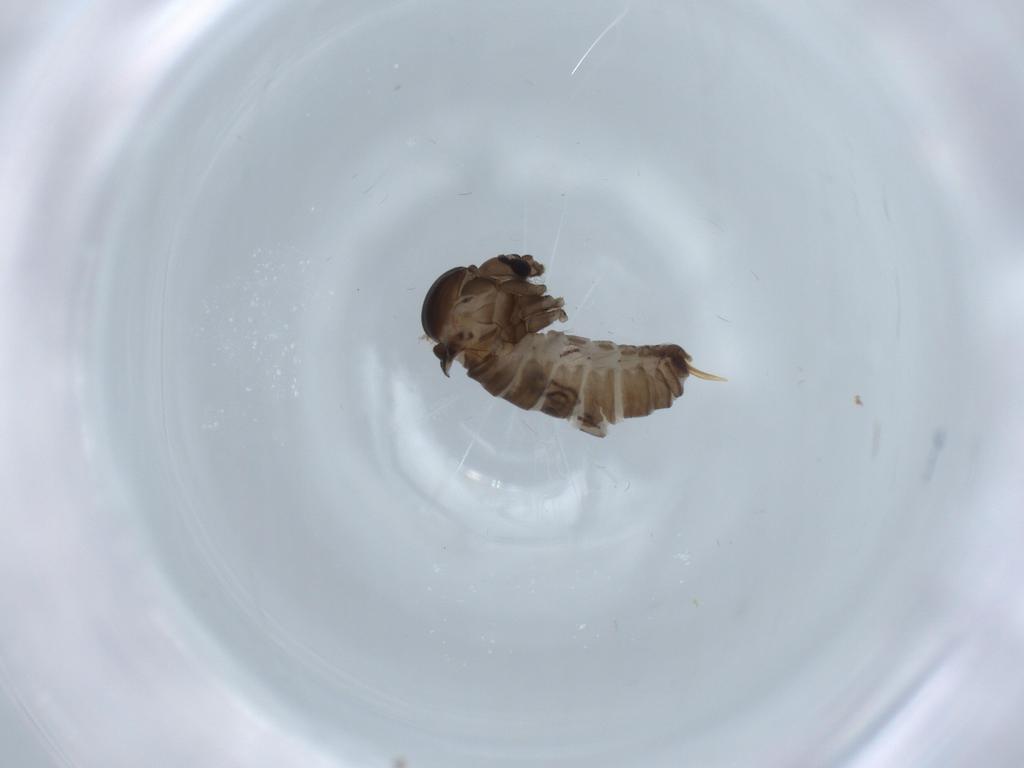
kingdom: Animalia
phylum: Arthropoda
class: Insecta
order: Diptera
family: Psychodidae
